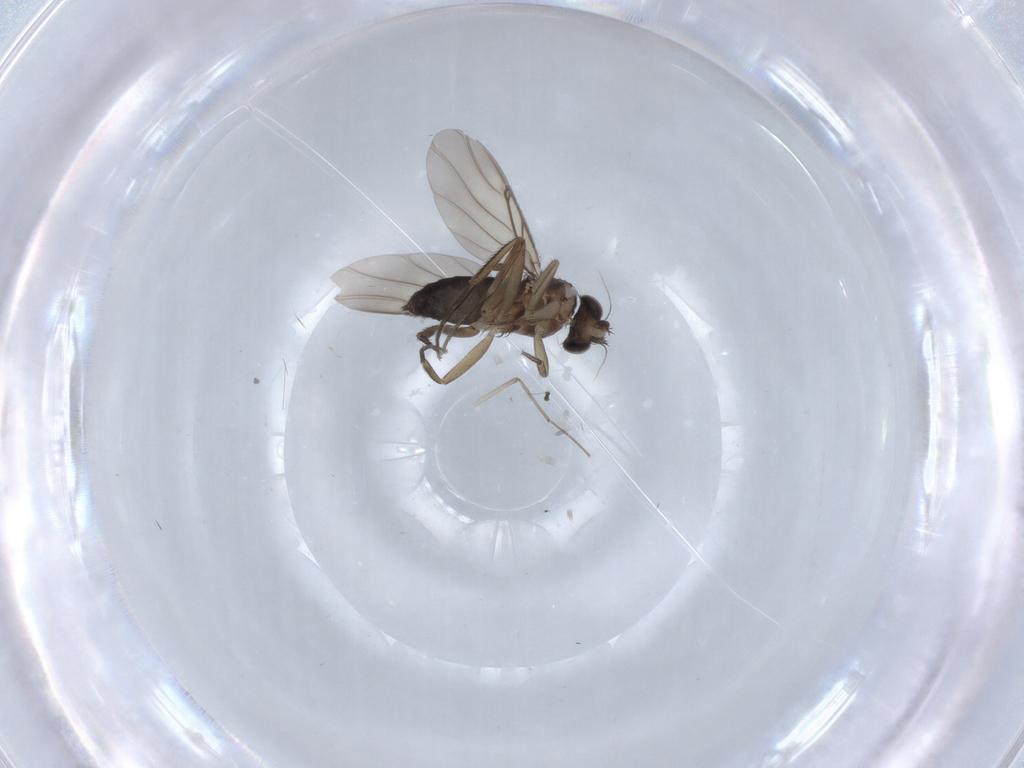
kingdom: Animalia
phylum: Arthropoda
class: Insecta
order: Diptera
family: Chironomidae
